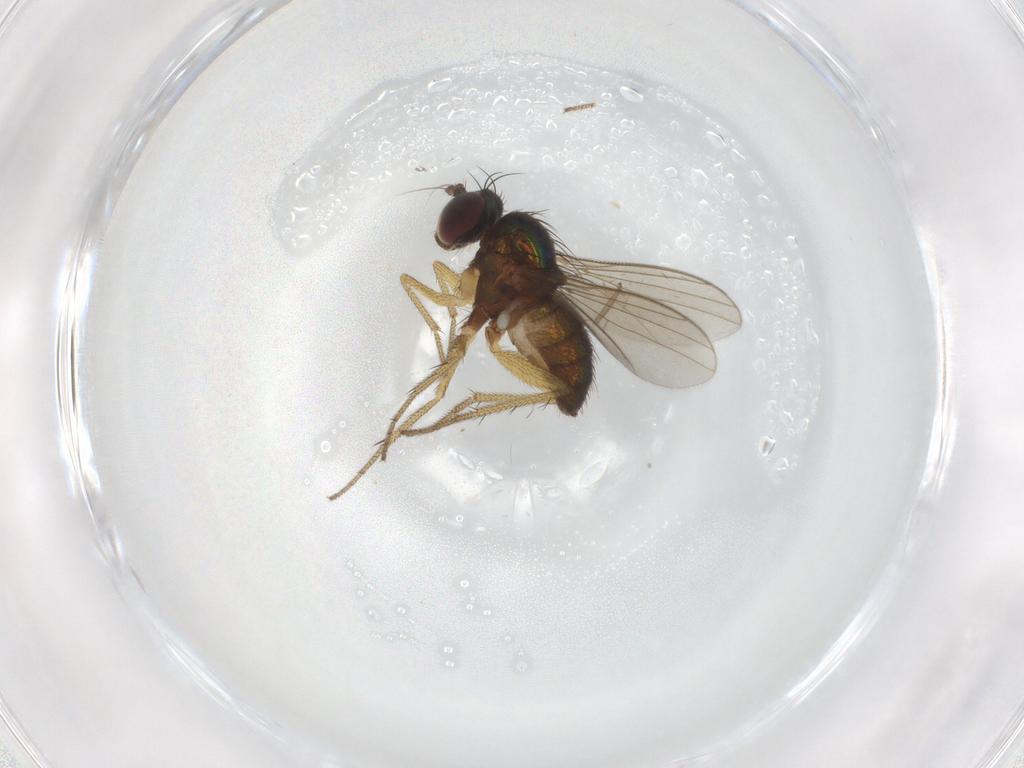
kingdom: Animalia
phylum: Arthropoda
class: Insecta
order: Diptera
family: Dolichopodidae
